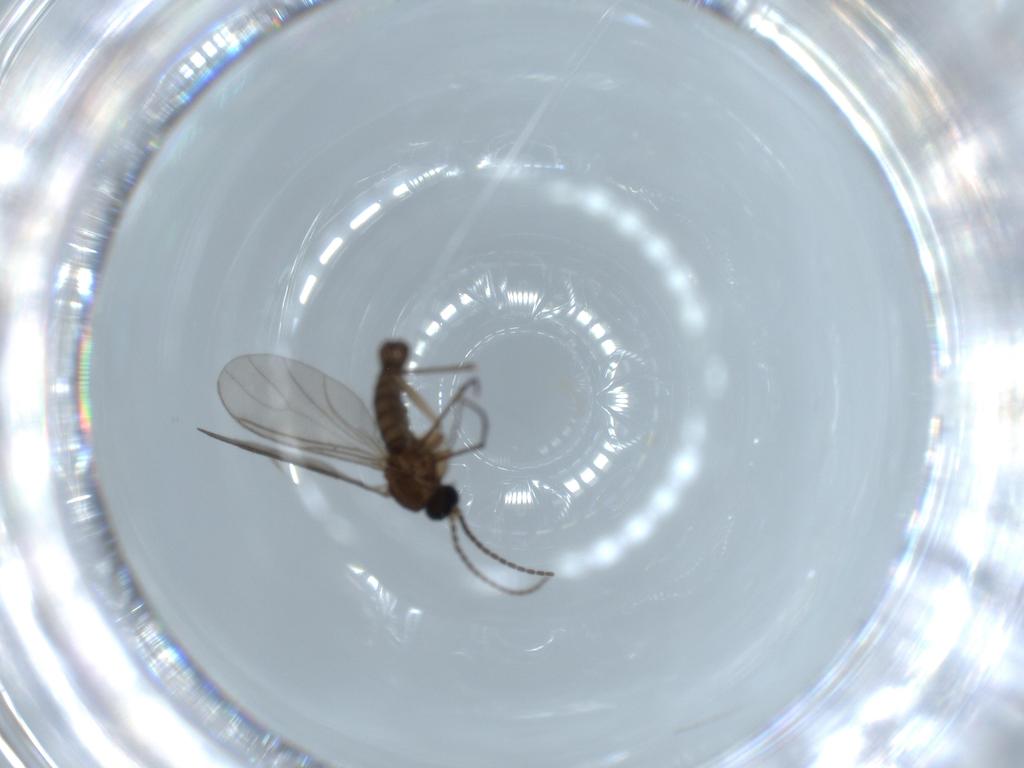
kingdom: Animalia
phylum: Arthropoda
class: Insecta
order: Diptera
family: Sciaridae
